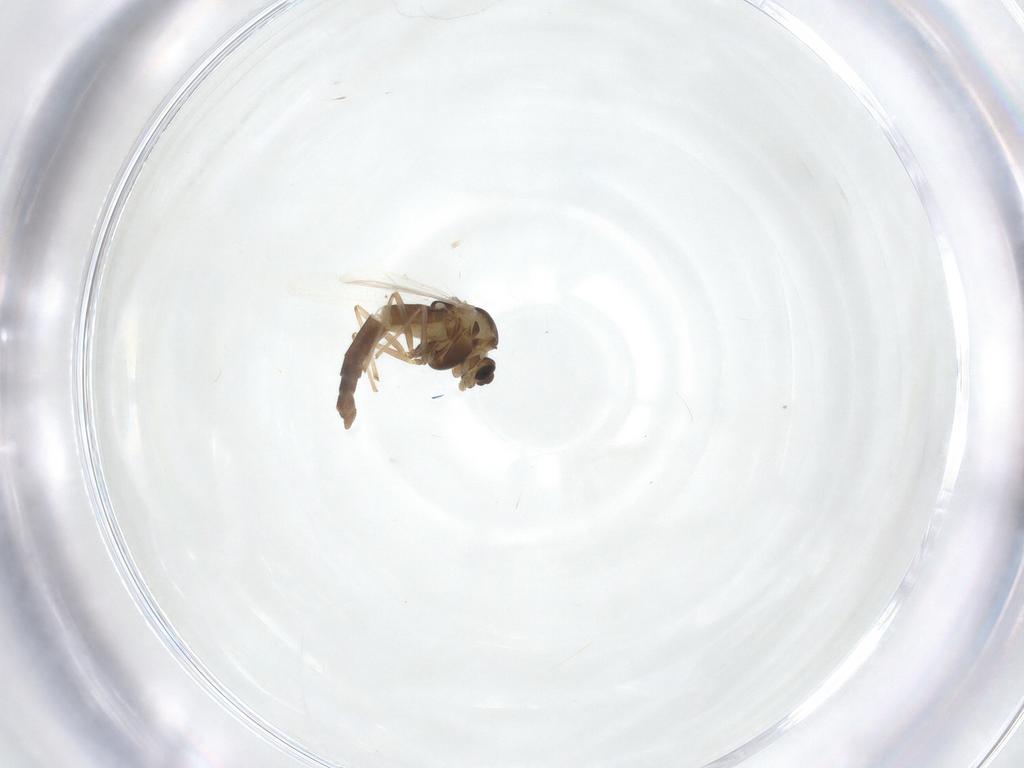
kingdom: Animalia
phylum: Arthropoda
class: Insecta
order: Diptera
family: Chironomidae
